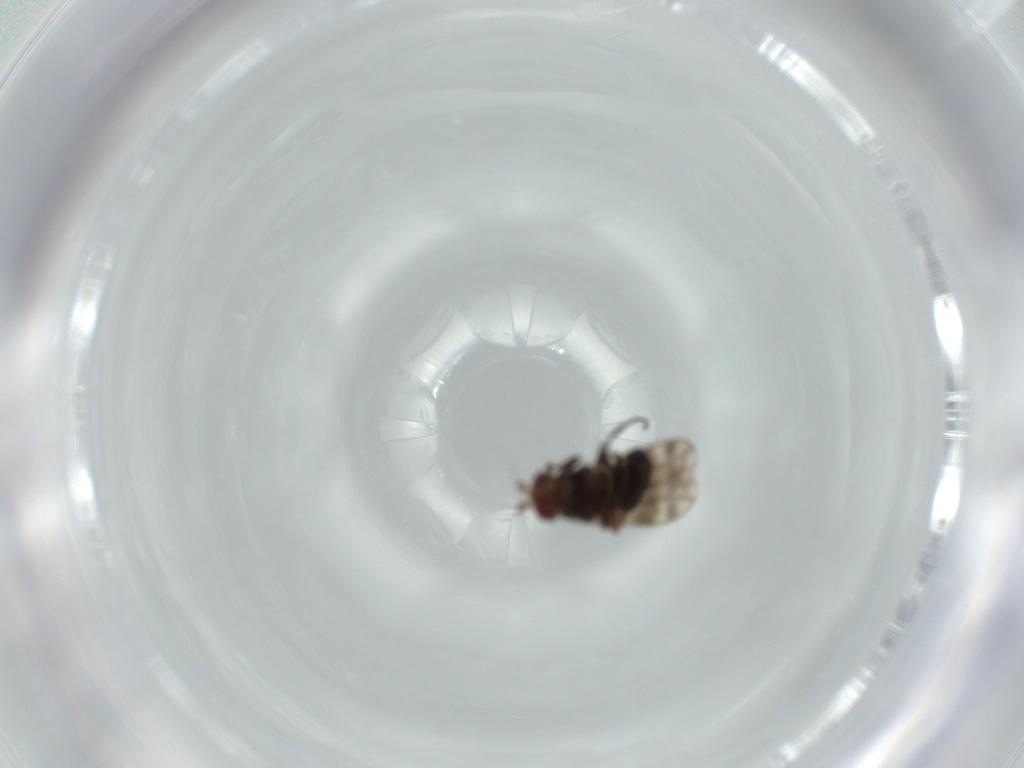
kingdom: Animalia
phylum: Arthropoda
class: Insecta
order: Diptera
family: Sphaeroceridae
